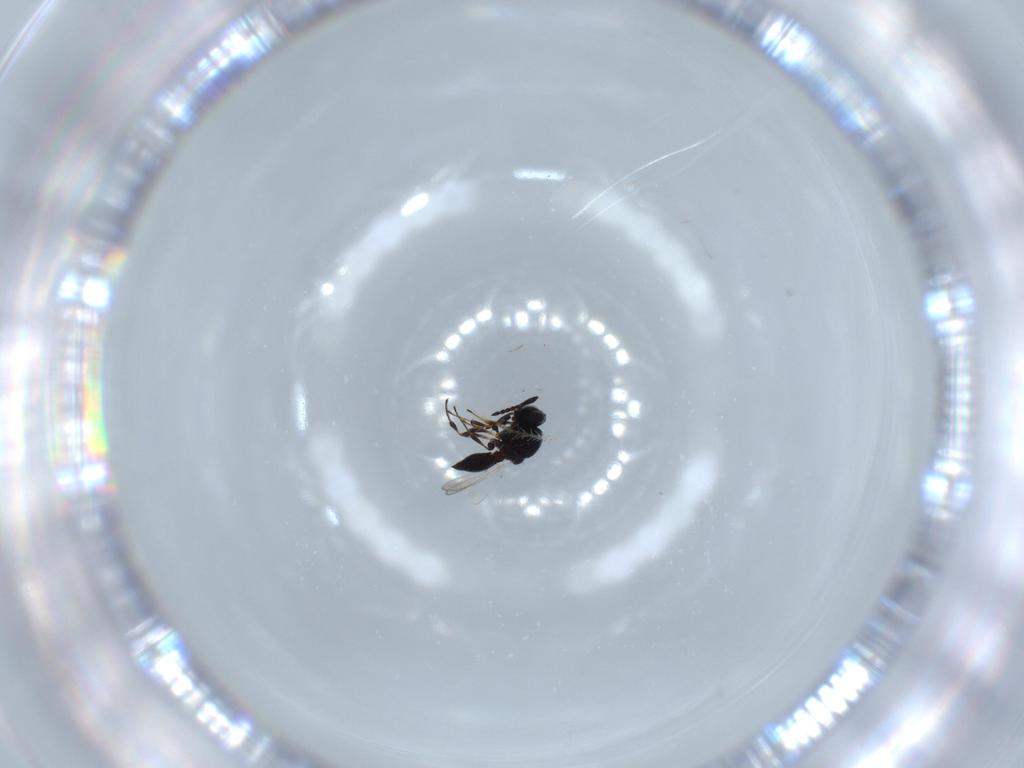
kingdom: Animalia
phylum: Arthropoda
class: Insecta
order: Hymenoptera
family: Platygastridae
